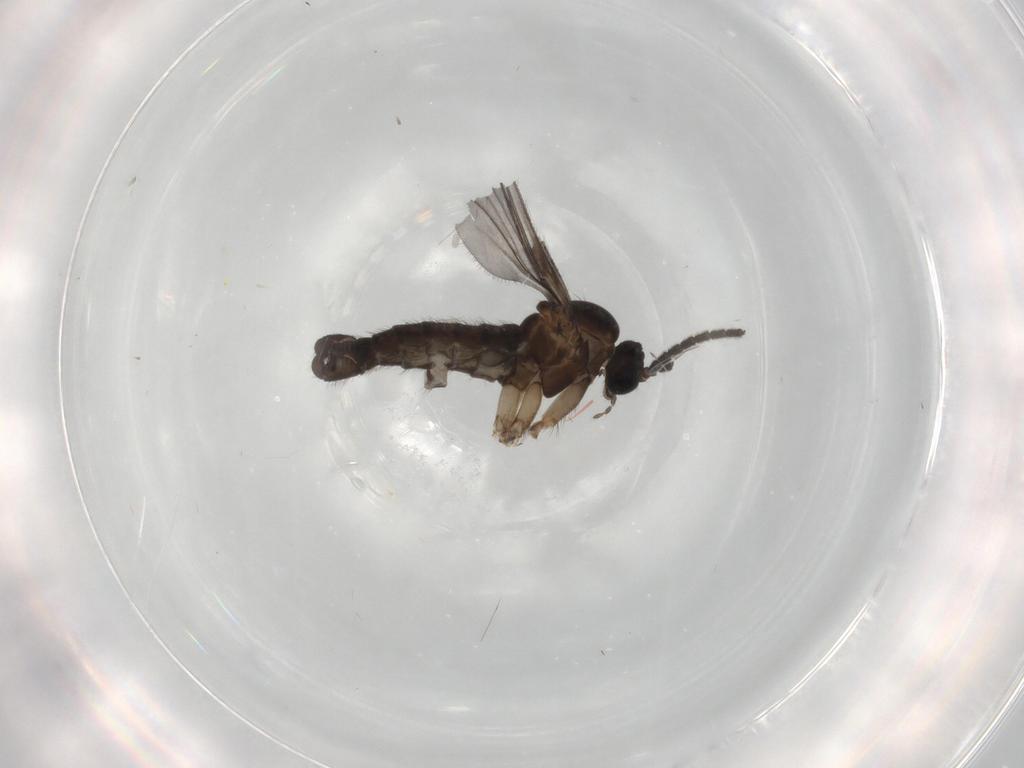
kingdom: Animalia
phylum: Arthropoda
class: Insecta
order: Diptera
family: Sciaridae
